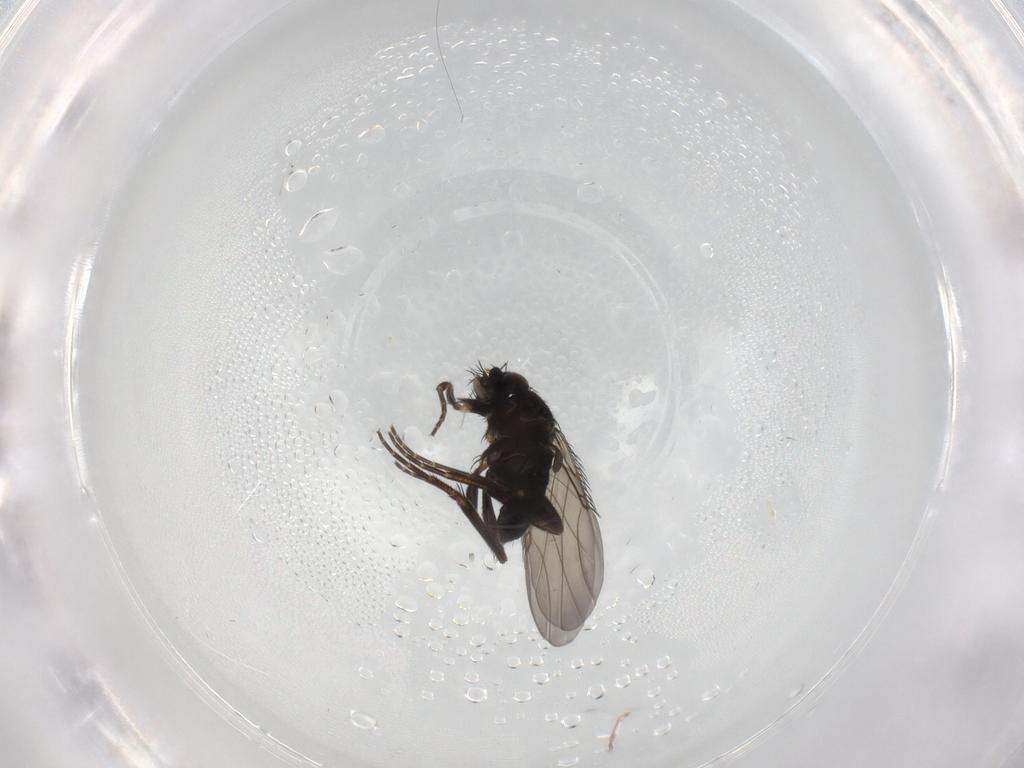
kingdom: Animalia
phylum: Arthropoda
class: Insecta
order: Diptera
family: Phoridae
